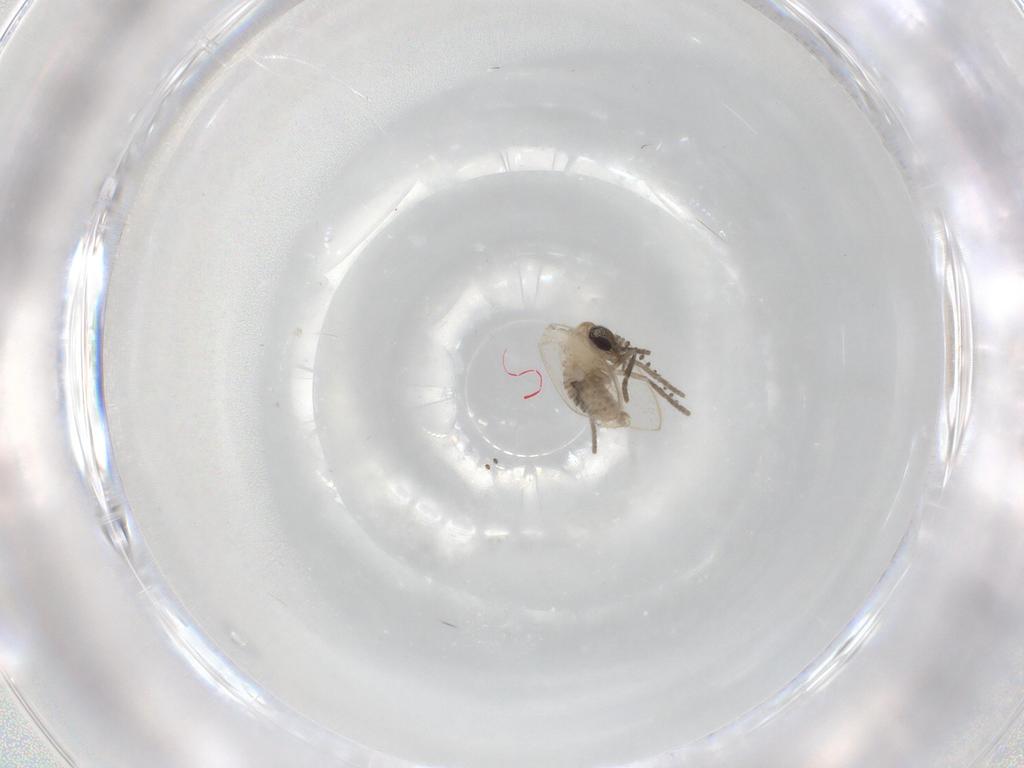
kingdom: Animalia
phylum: Arthropoda
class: Insecta
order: Diptera
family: Psychodidae
